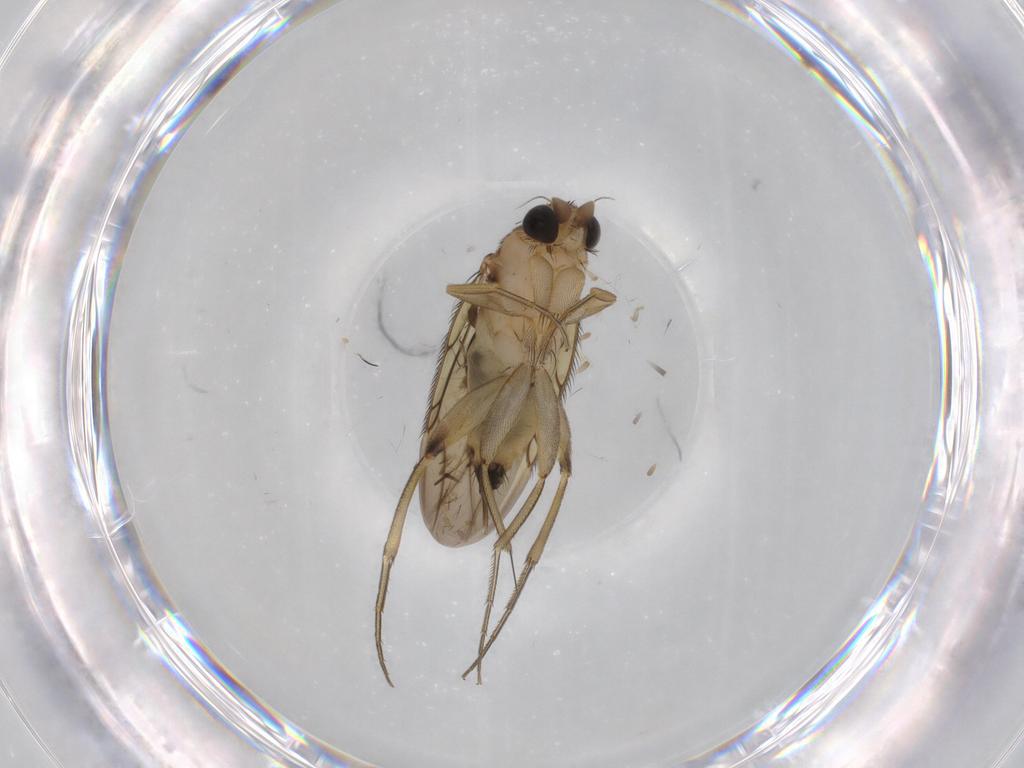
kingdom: Animalia
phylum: Arthropoda
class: Insecta
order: Diptera
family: Phoridae
